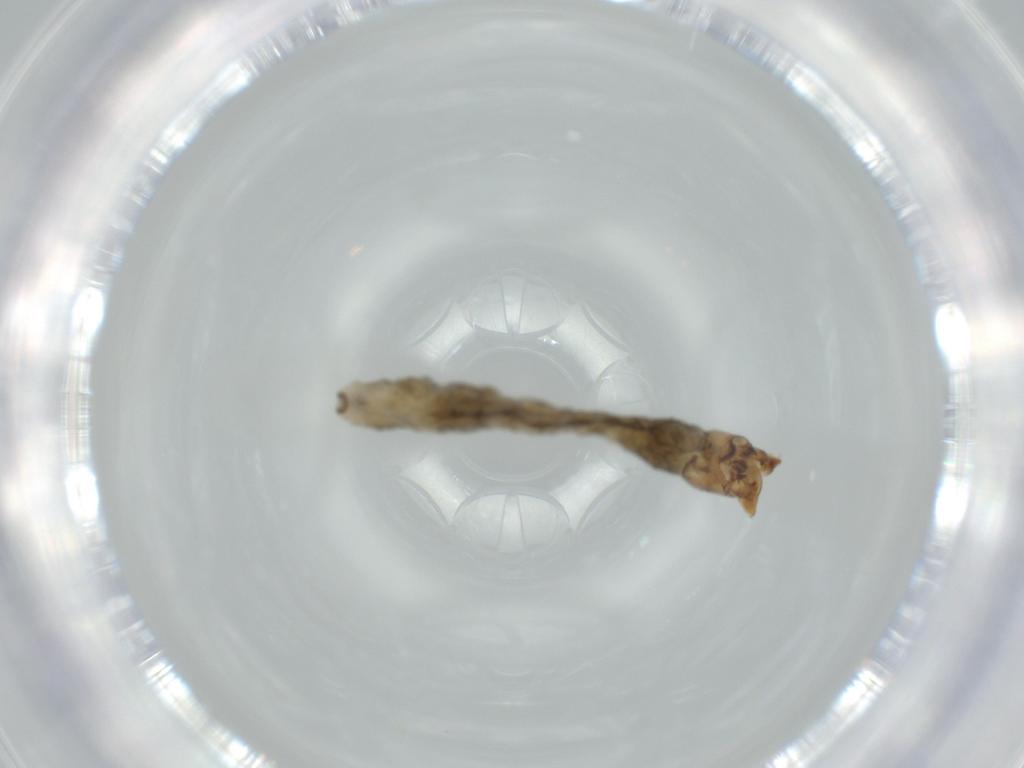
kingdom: Animalia
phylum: Arthropoda
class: Insecta
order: Diptera
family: Simuliidae
